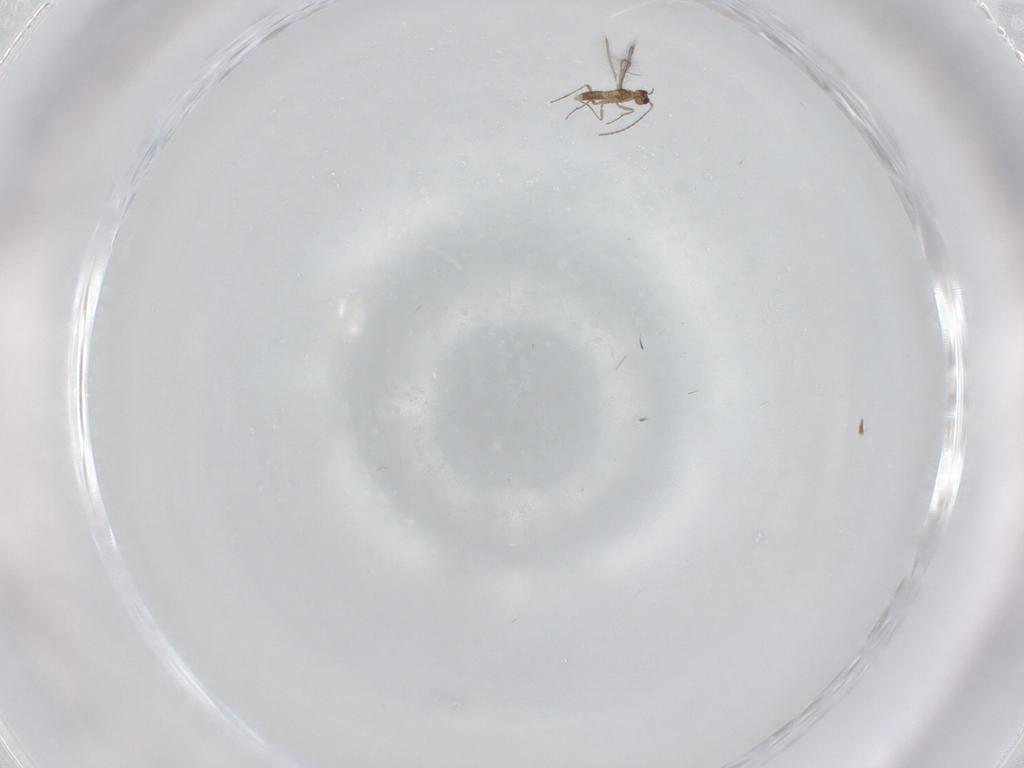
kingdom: Animalia
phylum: Arthropoda
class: Insecta
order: Hymenoptera
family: Mymaridae
